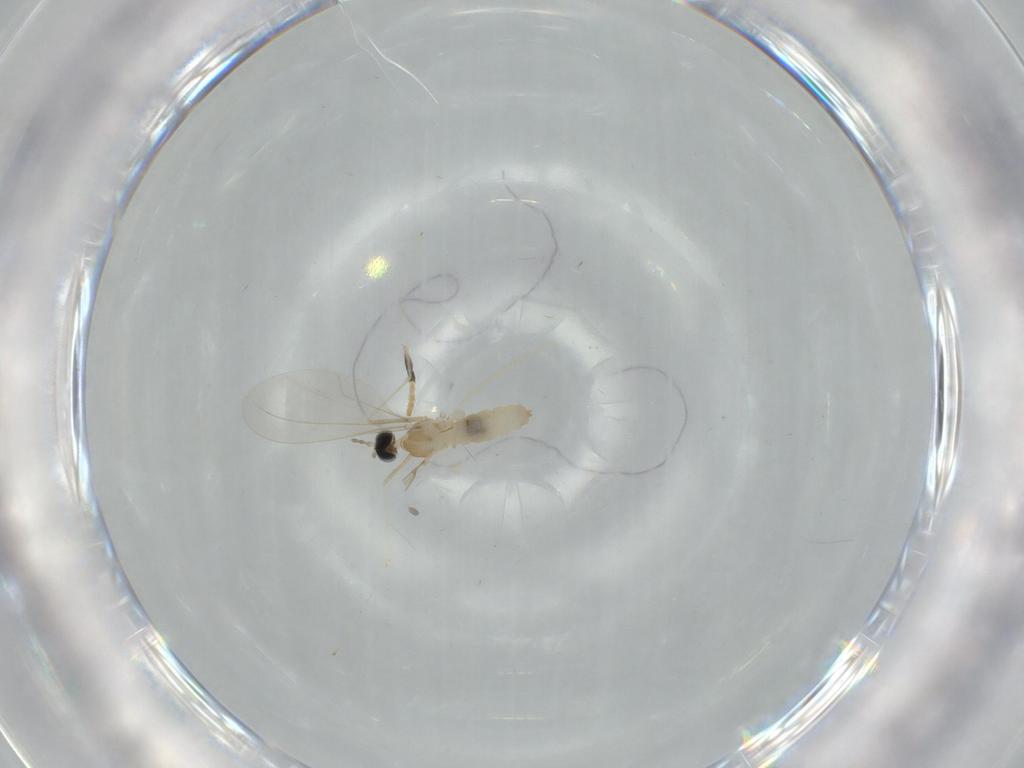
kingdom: Animalia
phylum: Arthropoda
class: Insecta
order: Diptera
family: Cecidomyiidae
